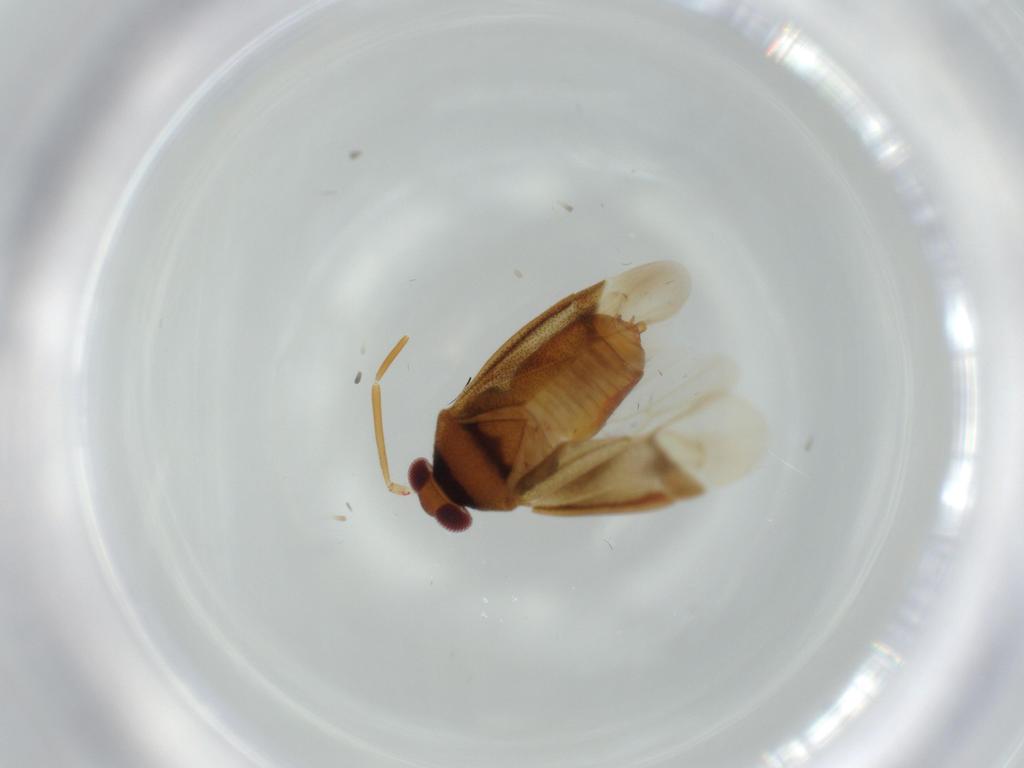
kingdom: Animalia
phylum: Arthropoda
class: Insecta
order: Hemiptera
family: Miridae
